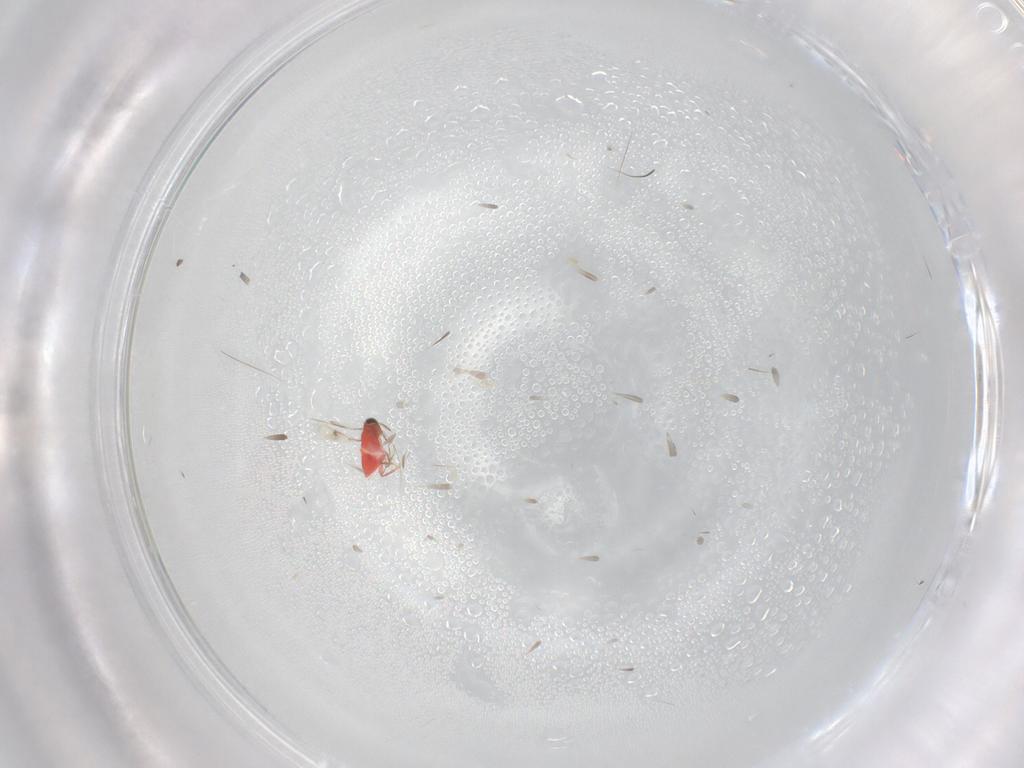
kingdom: Animalia
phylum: Arthropoda
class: Insecta
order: Hymenoptera
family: Trichogrammatidae
